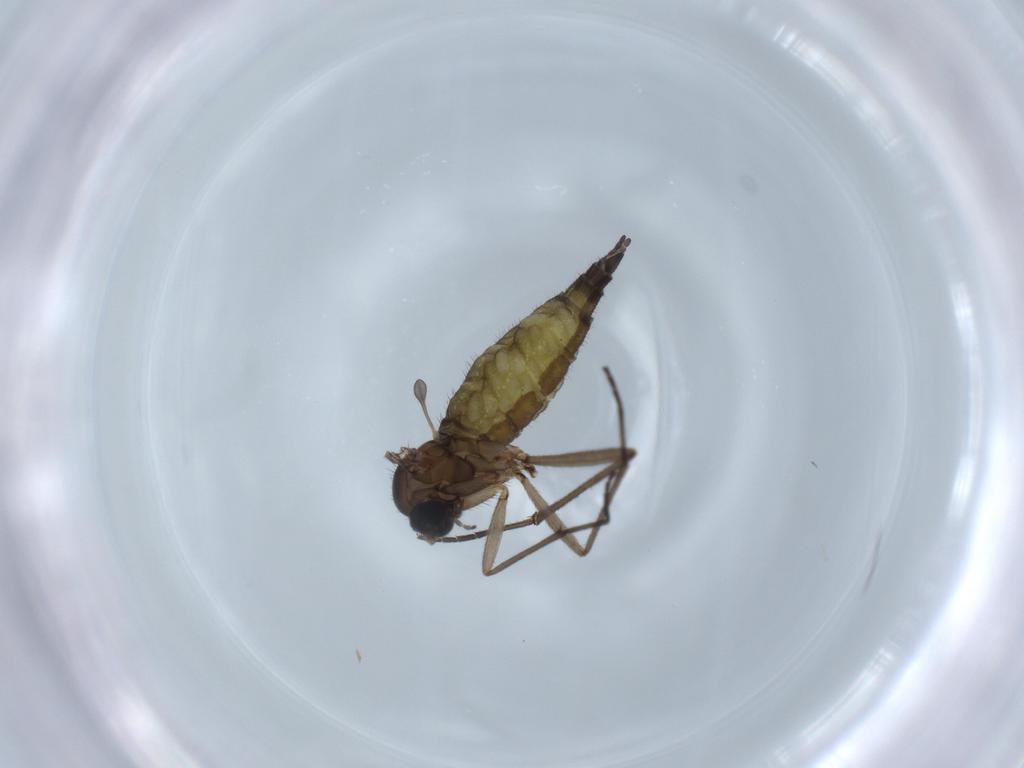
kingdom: Animalia
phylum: Arthropoda
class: Insecta
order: Diptera
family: Sciaridae
